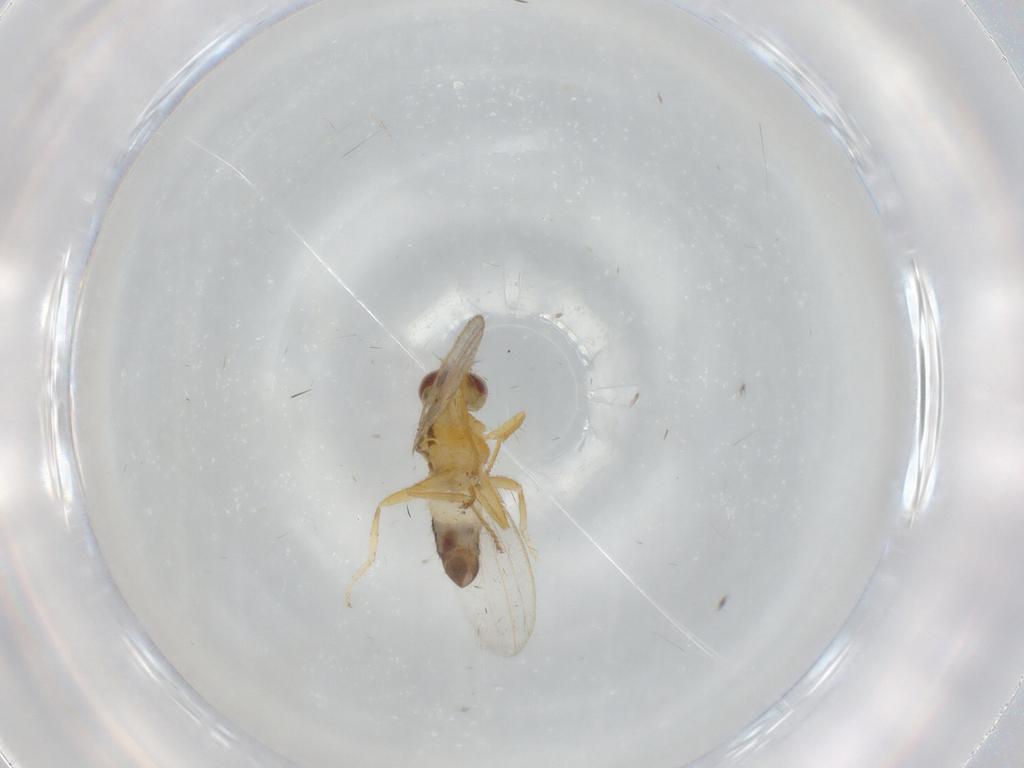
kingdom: Animalia
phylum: Arthropoda
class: Insecta
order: Diptera
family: Periscelididae
